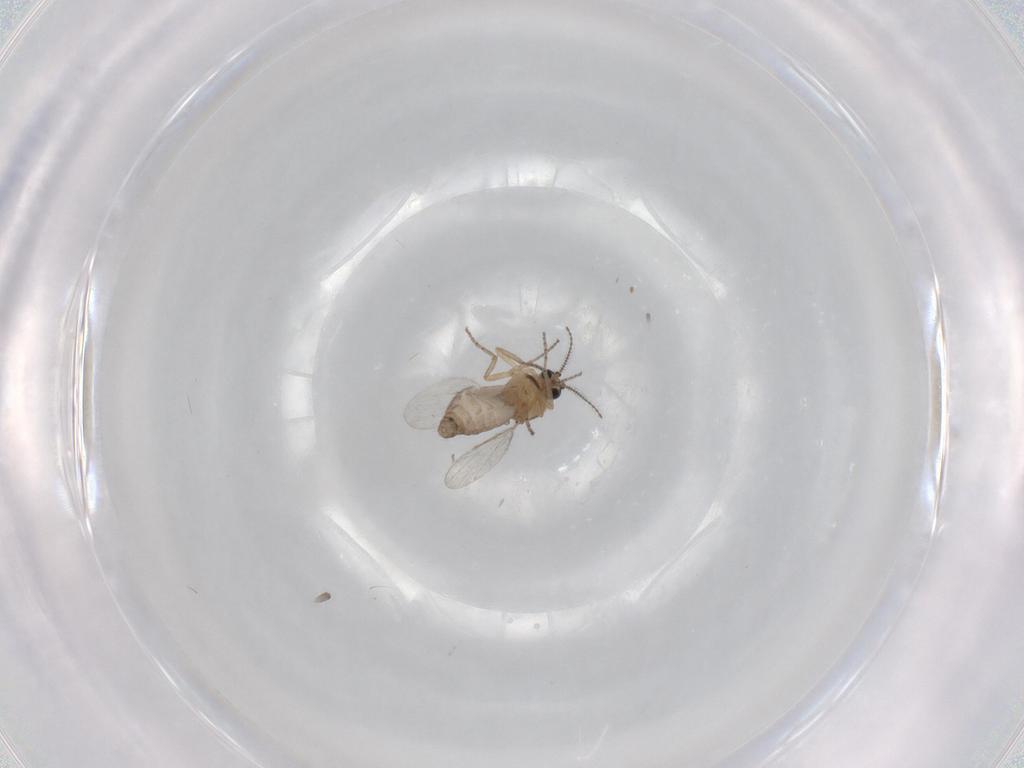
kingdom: Animalia
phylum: Arthropoda
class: Insecta
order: Diptera
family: Ceratopogonidae
